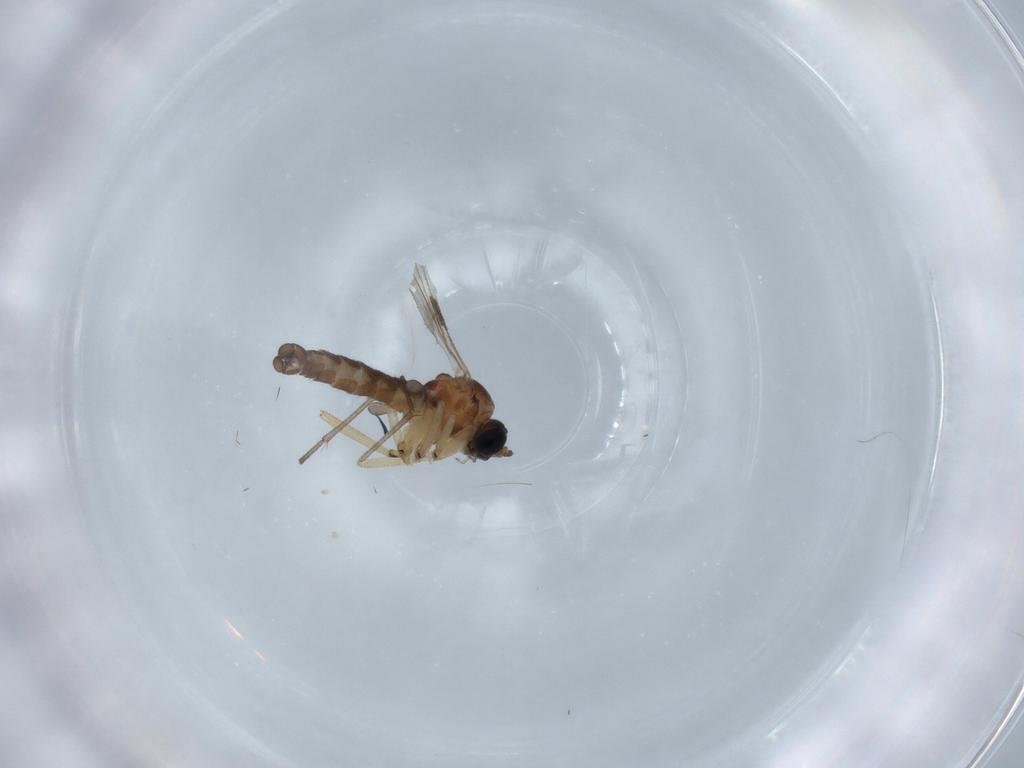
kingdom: Animalia
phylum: Arthropoda
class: Insecta
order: Diptera
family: Sciaridae
